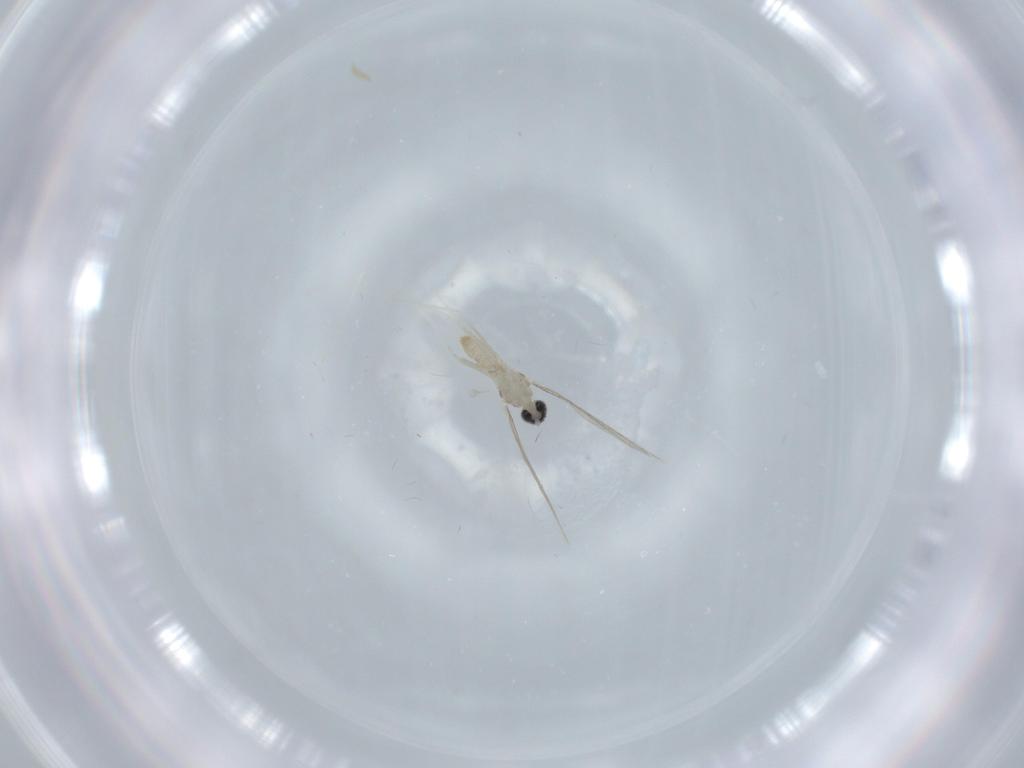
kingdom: Animalia
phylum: Arthropoda
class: Insecta
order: Diptera
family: Cecidomyiidae
